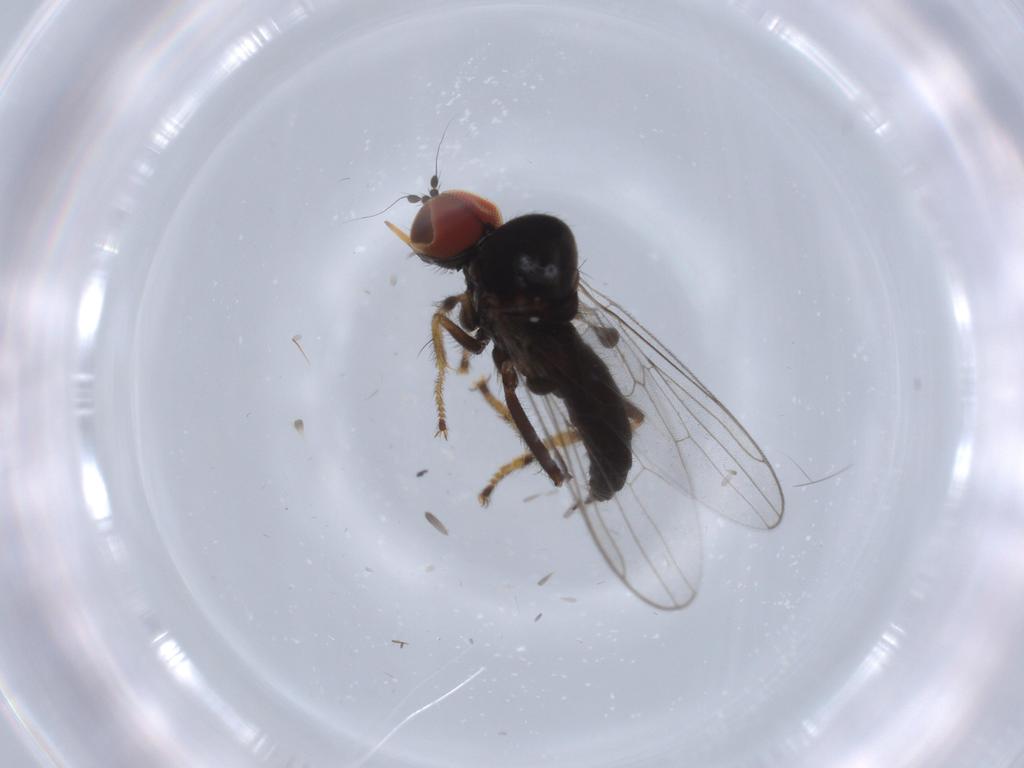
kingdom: Animalia
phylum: Arthropoda
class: Insecta
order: Diptera
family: Hybotidae
